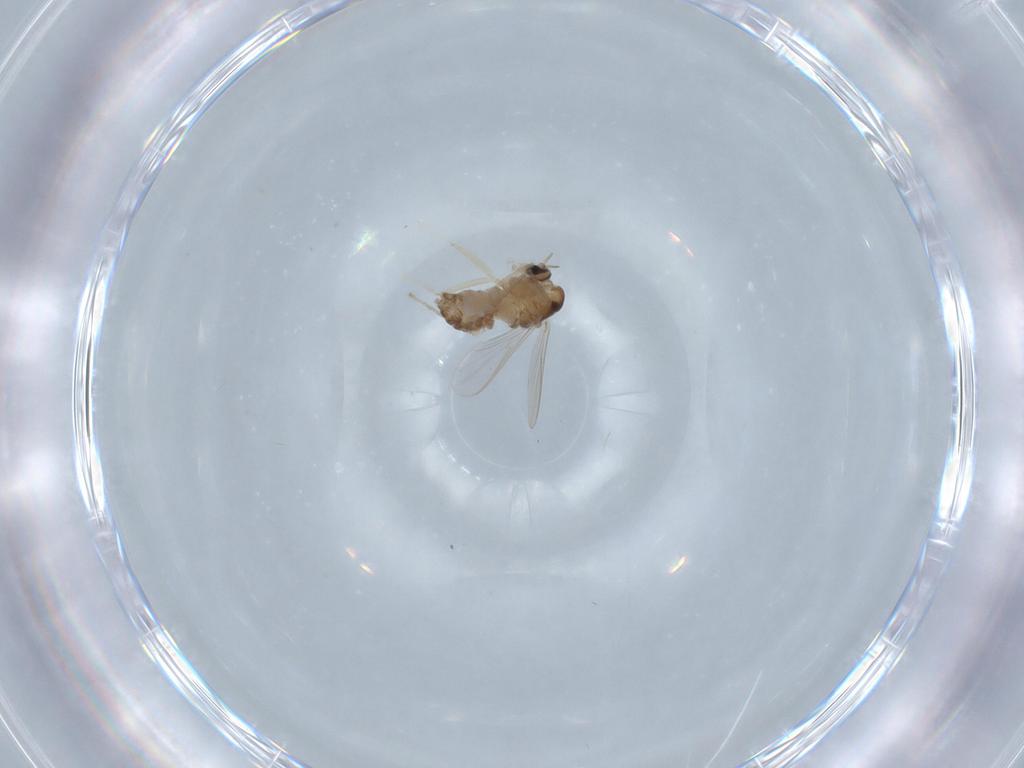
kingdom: Animalia
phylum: Arthropoda
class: Insecta
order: Diptera
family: Chironomidae
